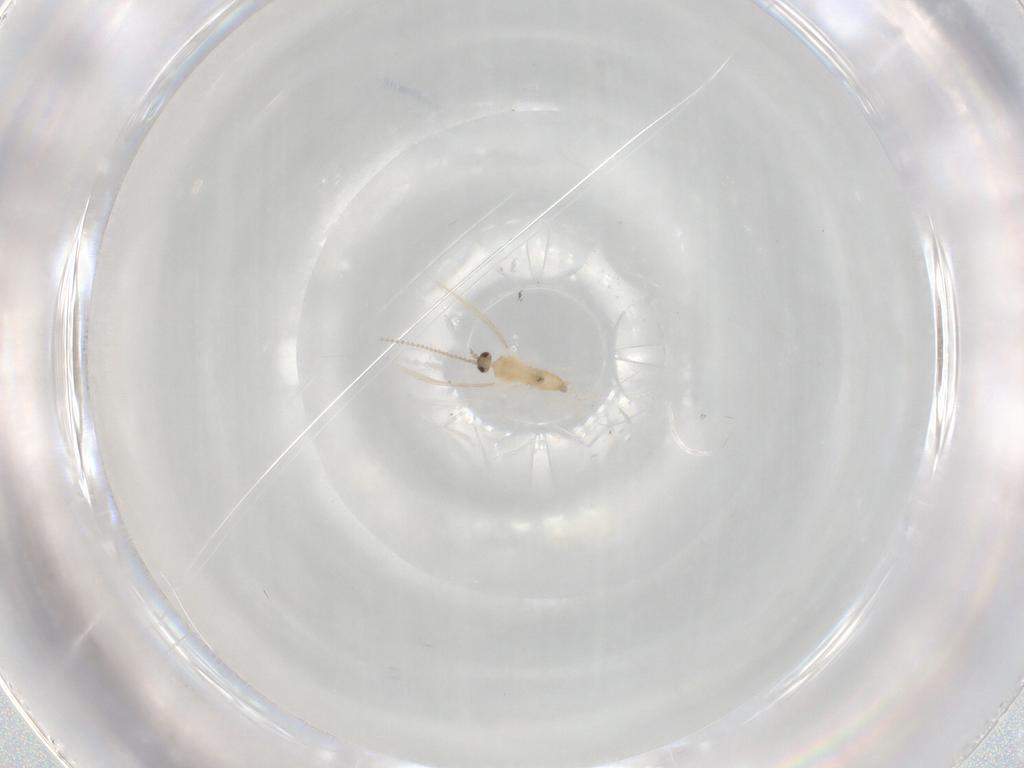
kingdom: Animalia
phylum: Arthropoda
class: Insecta
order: Diptera
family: Cecidomyiidae
